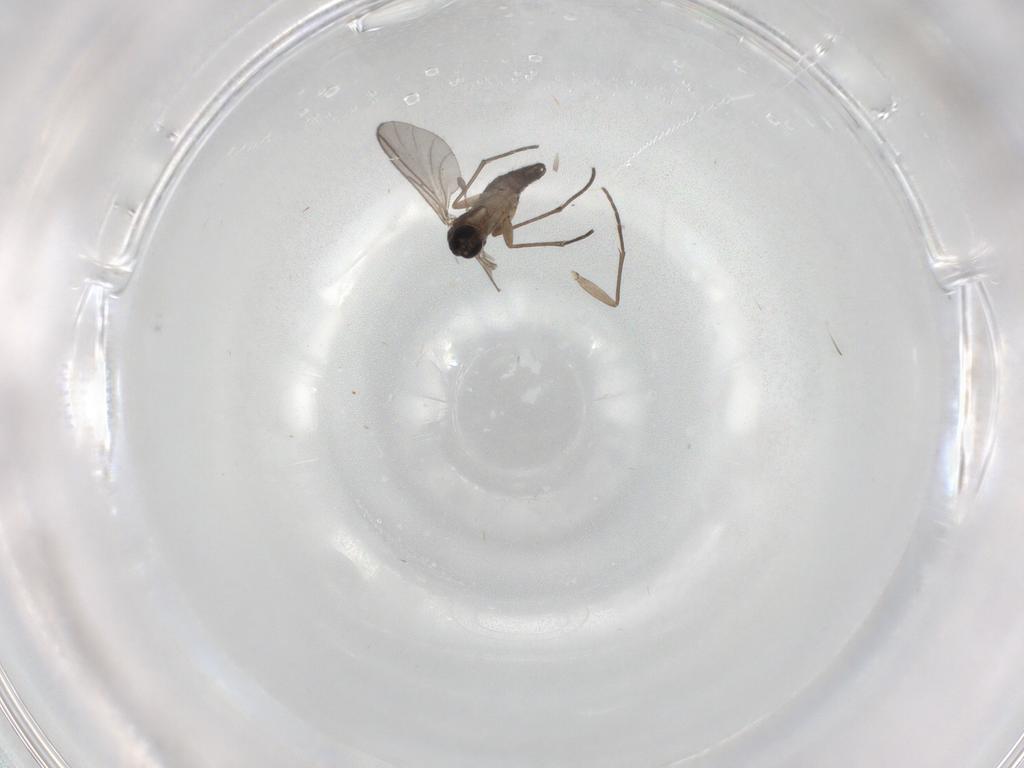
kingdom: Animalia
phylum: Arthropoda
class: Insecta
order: Diptera
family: Sciaridae
